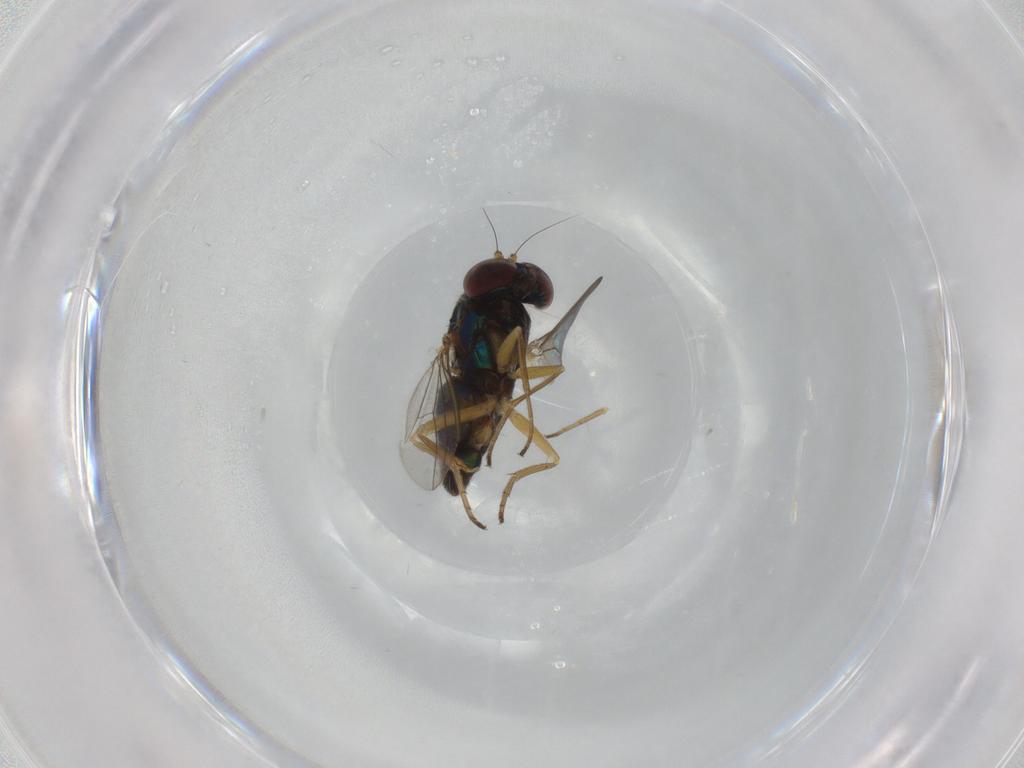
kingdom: Animalia
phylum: Arthropoda
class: Insecta
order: Diptera
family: Dolichopodidae
